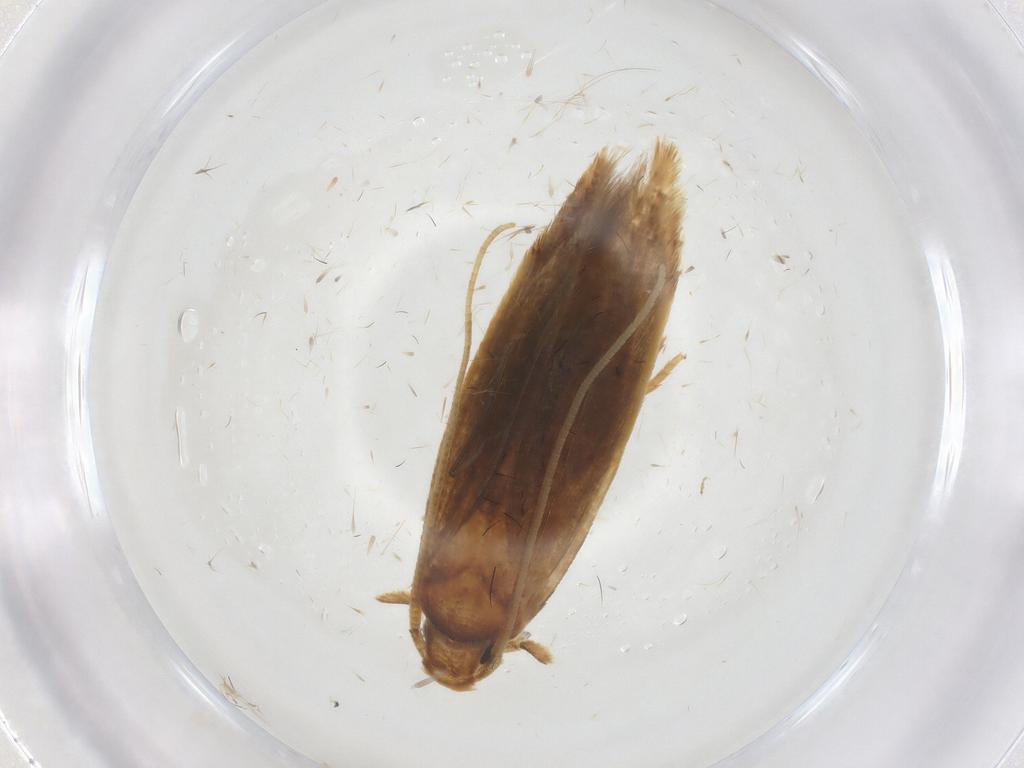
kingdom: Animalia
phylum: Arthropoda
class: Insecta
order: Lepidoptera
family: Tineidae
